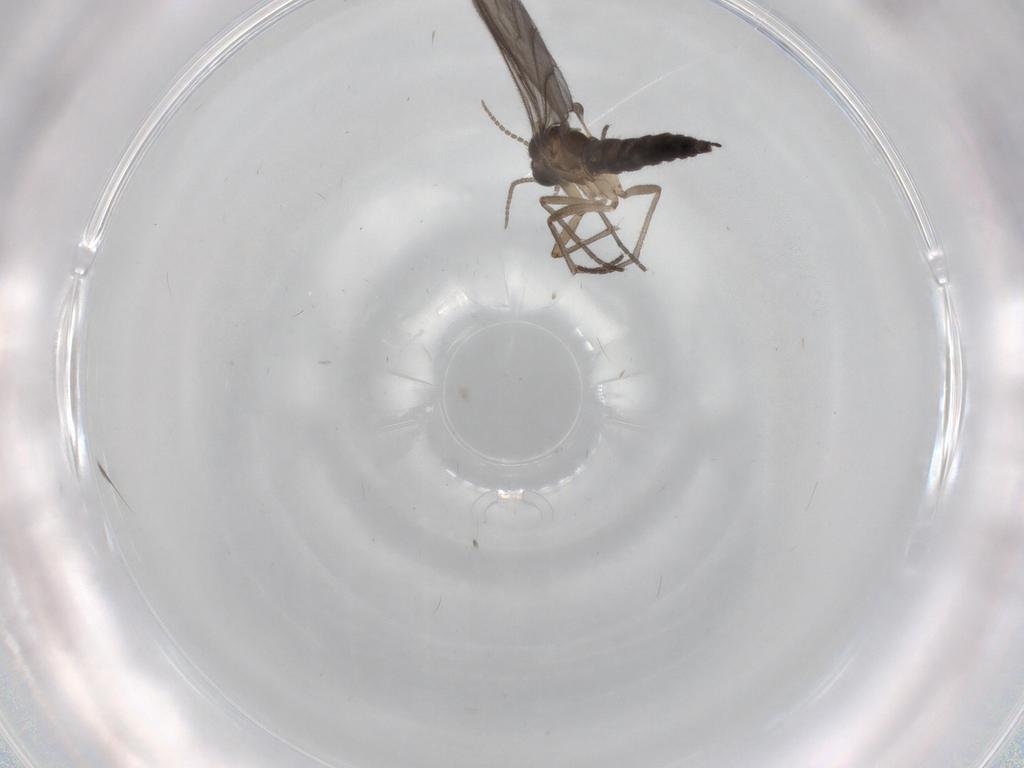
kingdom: Animalia
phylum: Arthropoda
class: Insecta
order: Diptera
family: Sciaridae
